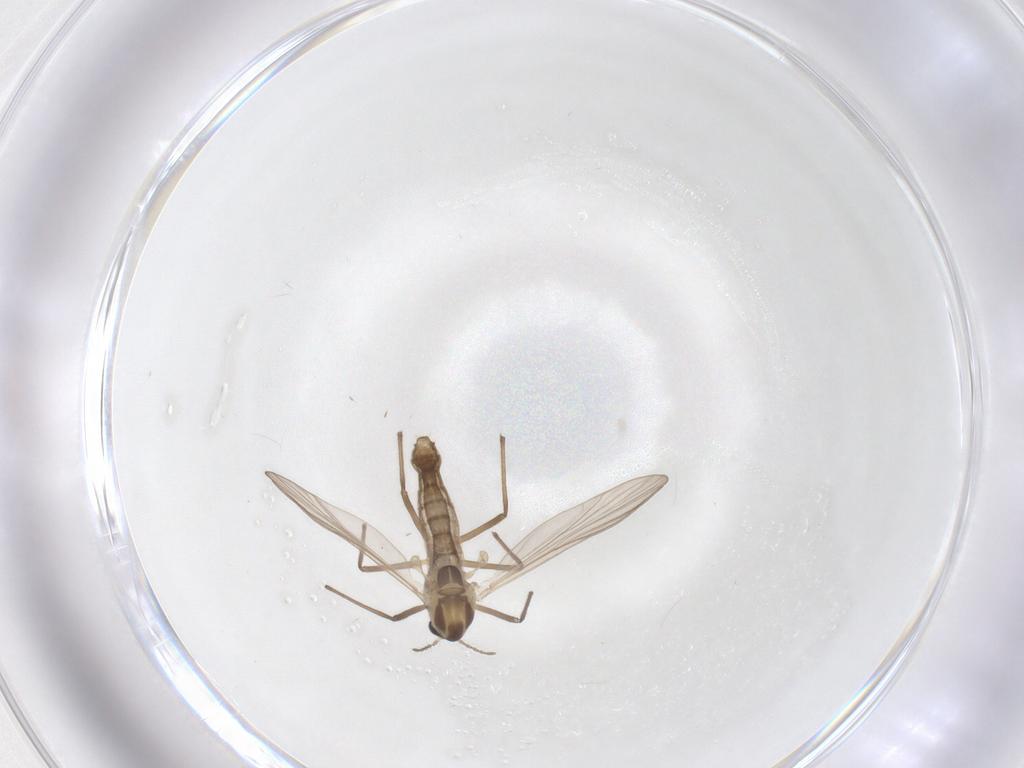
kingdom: Animalia
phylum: Arthropoda
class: Insecta
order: Diptera
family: Chironomidae
